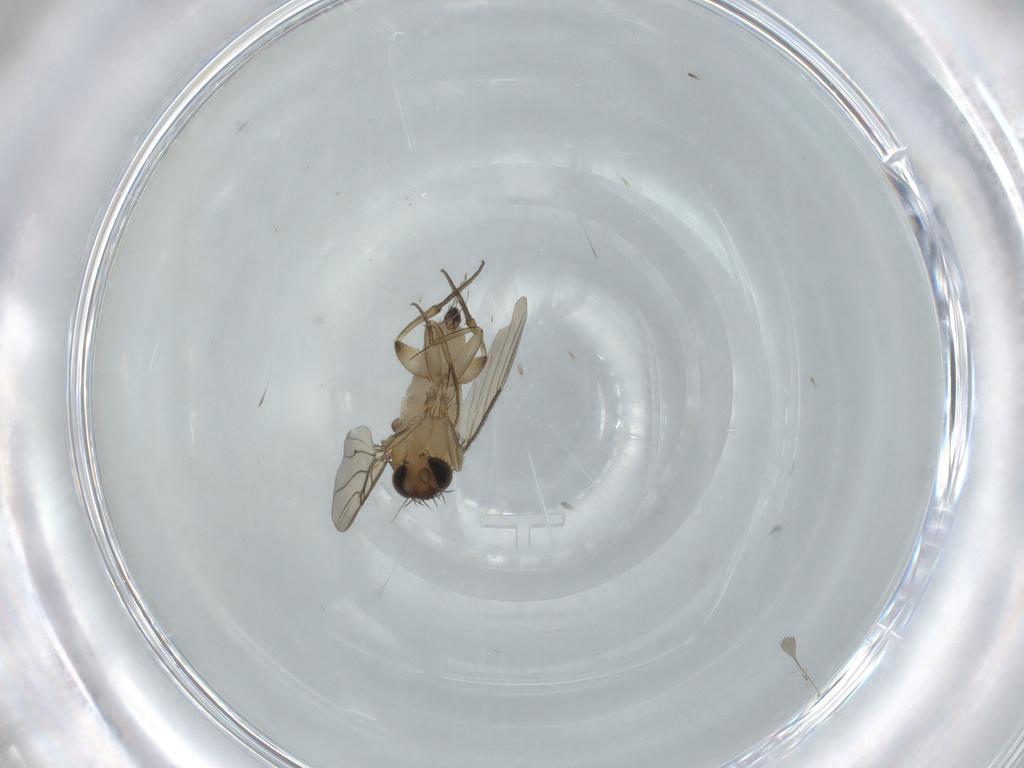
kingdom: Animalia
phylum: Arthropoda
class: Insecta
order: Diptera
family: Phoridae
